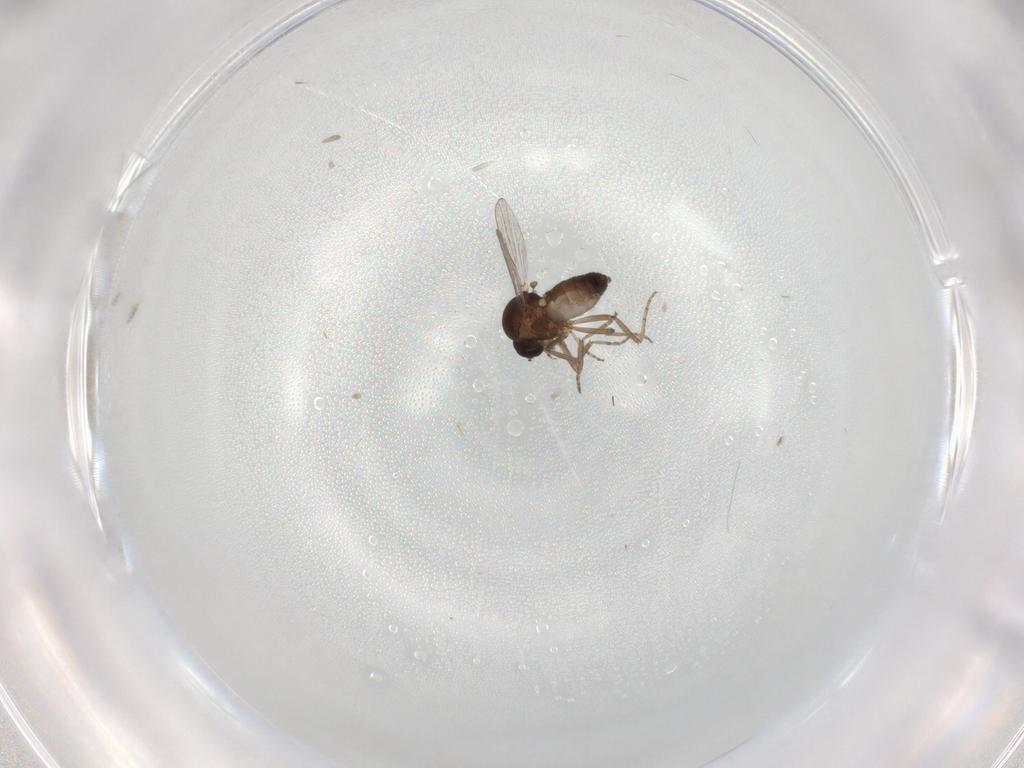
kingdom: Animalia
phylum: Arthropoda
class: Insecta
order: Diptera
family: Ceratopogonidae
